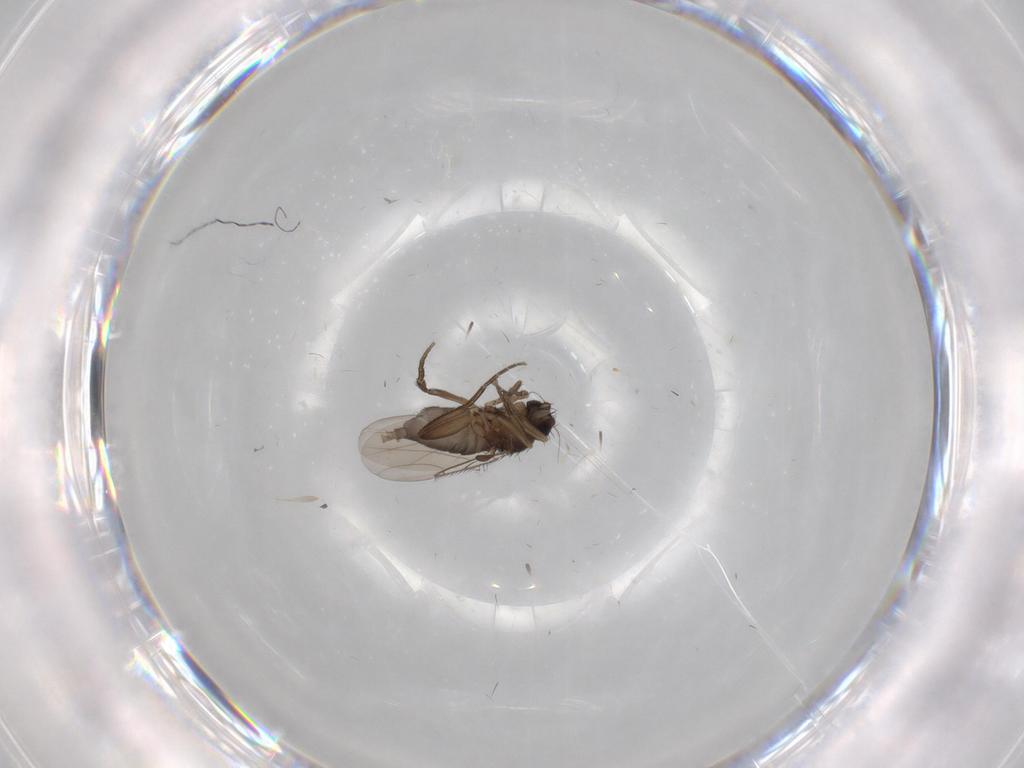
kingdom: Animalia
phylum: Arthropoda
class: Insecta
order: Diptera
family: Phoridae
